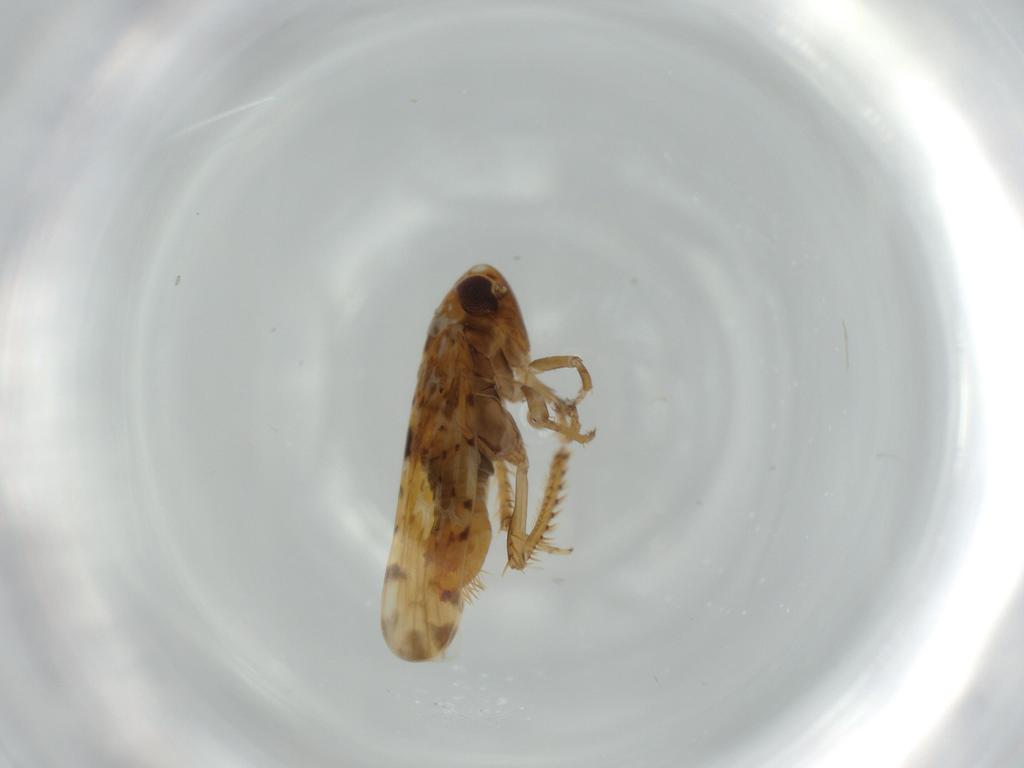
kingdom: Animalia
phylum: Arthropoda
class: Insecta
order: Hemiptera
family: Cicadellidae
